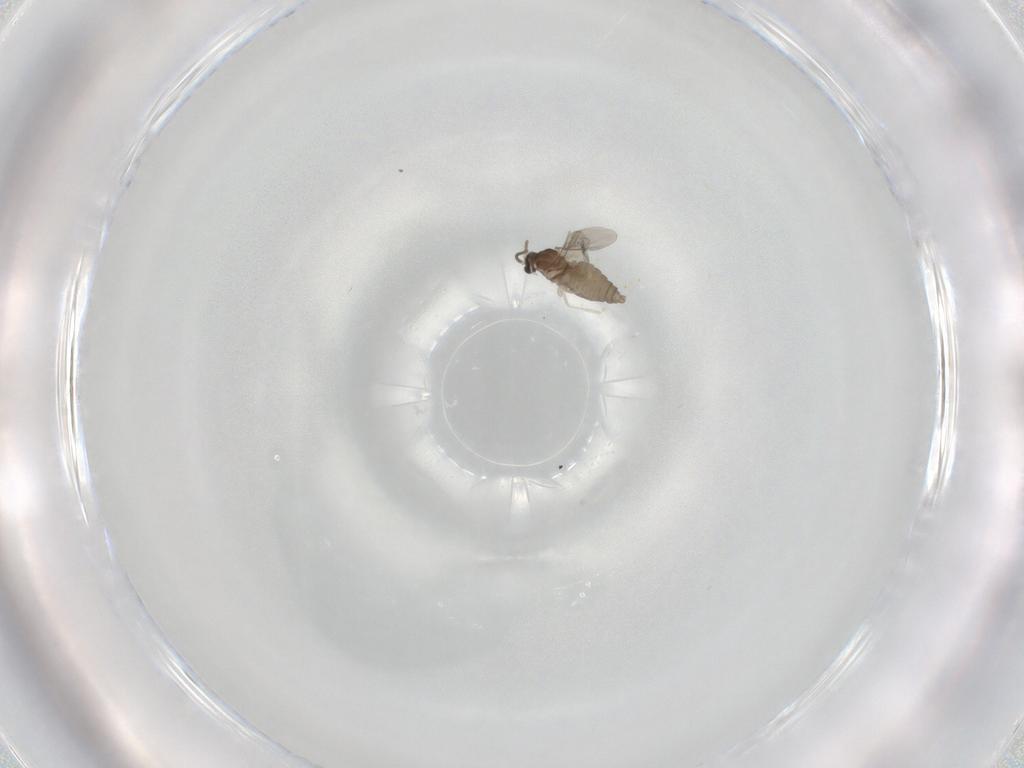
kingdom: Animalia
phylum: Arthropoda
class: Insecta
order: Diptera
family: Cecidomyiidae
